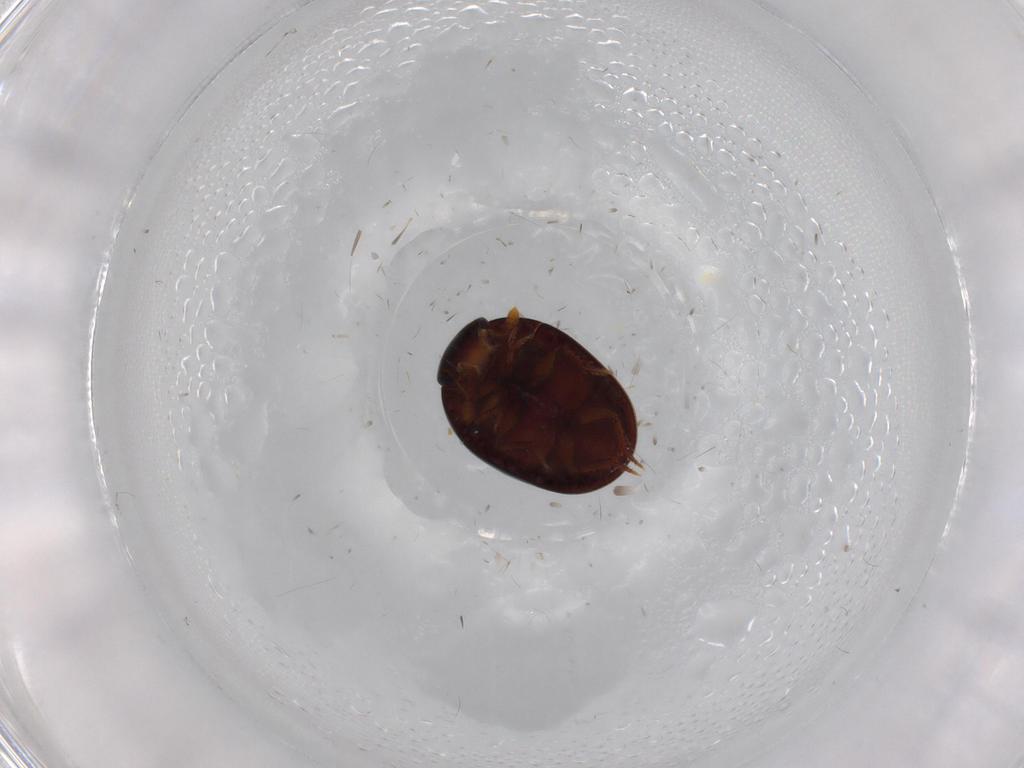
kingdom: Animalia
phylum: Arthropoda
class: Insecta
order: Coleoptera
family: Hydrophilidae
